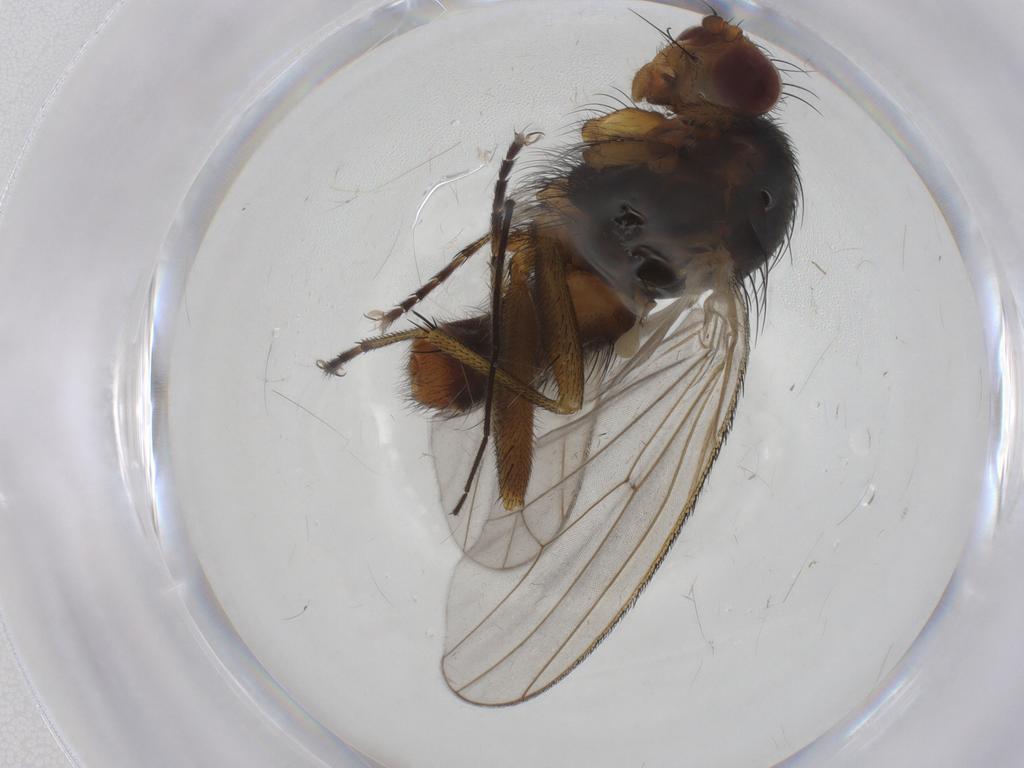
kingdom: Animalia
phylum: Arthropoda
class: Insecta
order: Diptera
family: Heleomyzidae
